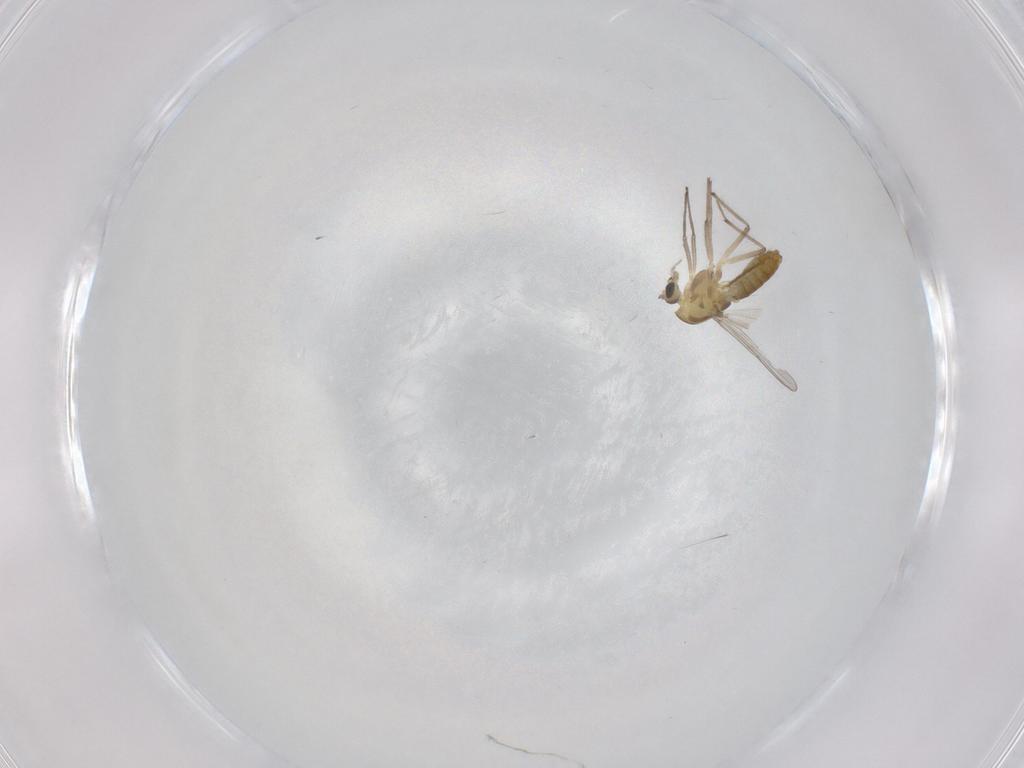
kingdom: Animalia
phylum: Arthropoda
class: Insecta
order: Diptera
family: Chironomidae
